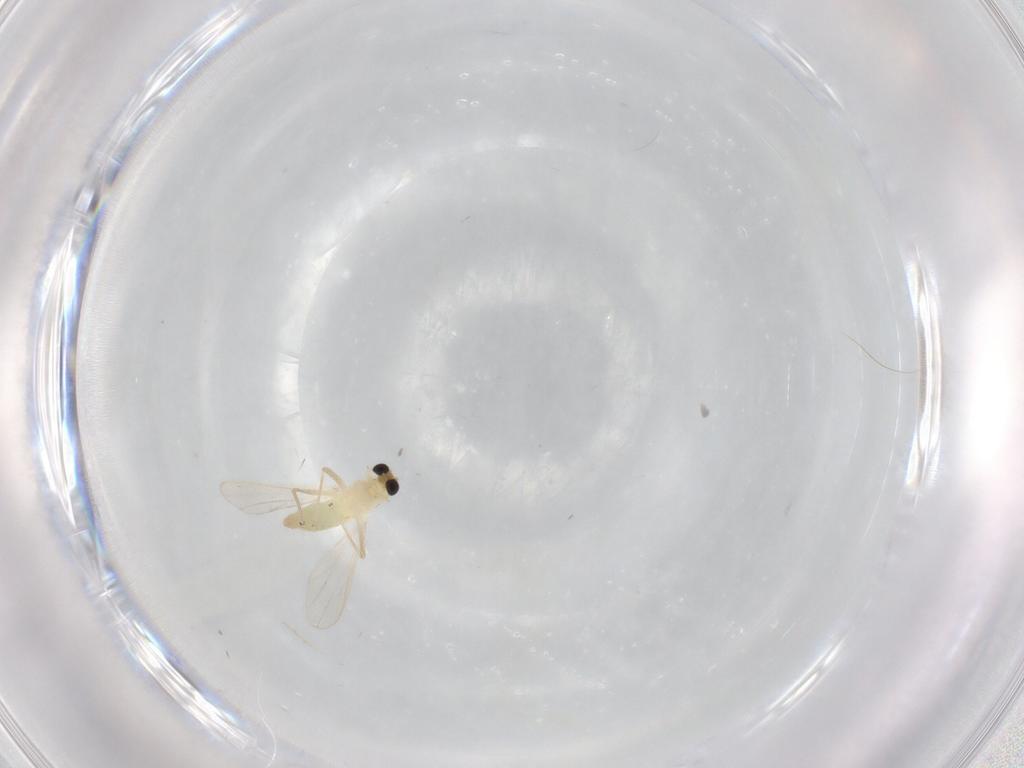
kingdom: Animalia
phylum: Arthropoda
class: Insecta
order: Diptera
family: Chironomidae
